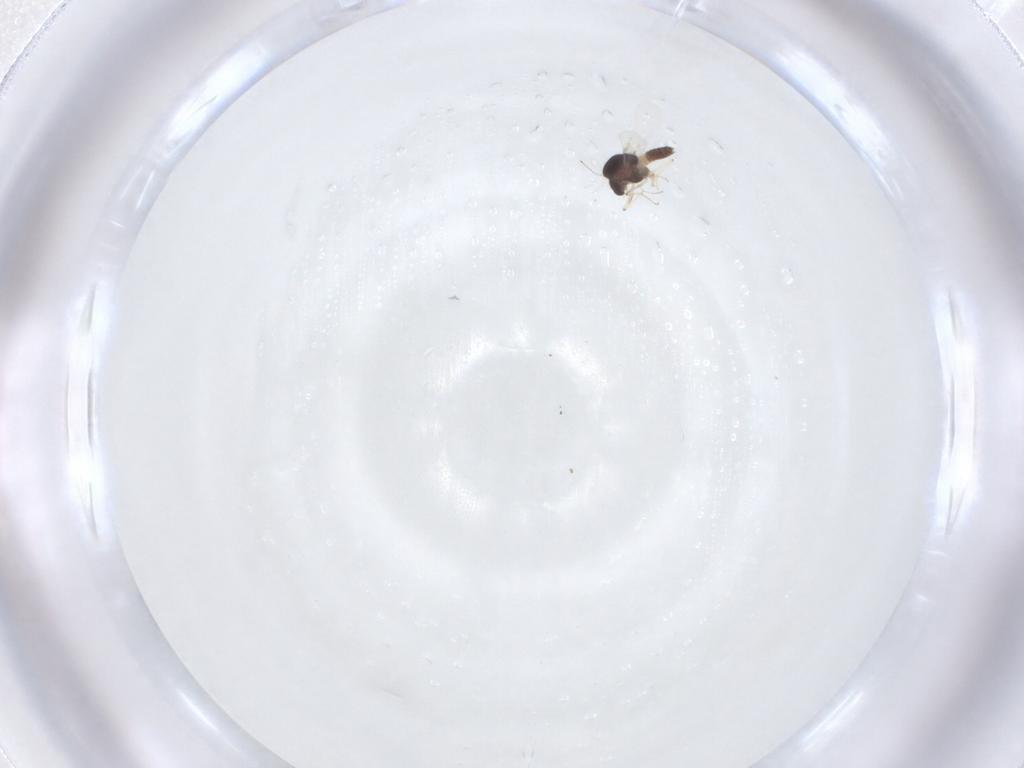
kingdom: Animalia
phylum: Arthropoda
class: Insecta
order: Diptera
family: Chironomidae
